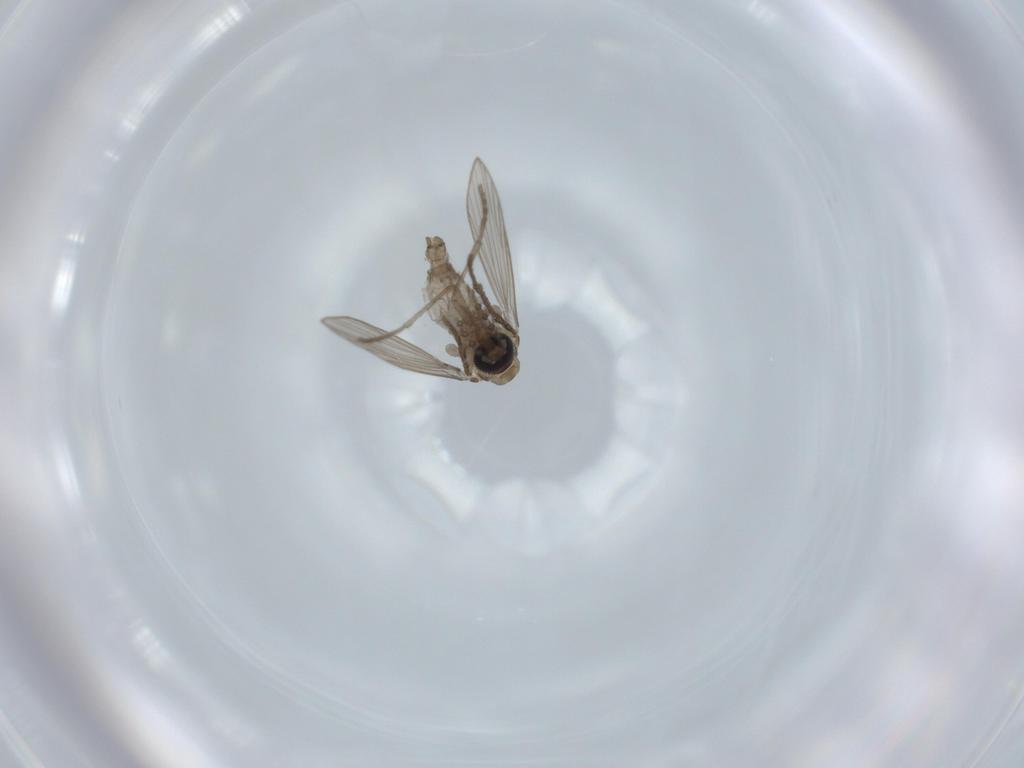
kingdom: Animalia
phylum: Arthropoda
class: Insecta
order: Diptera
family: Psychodidae
